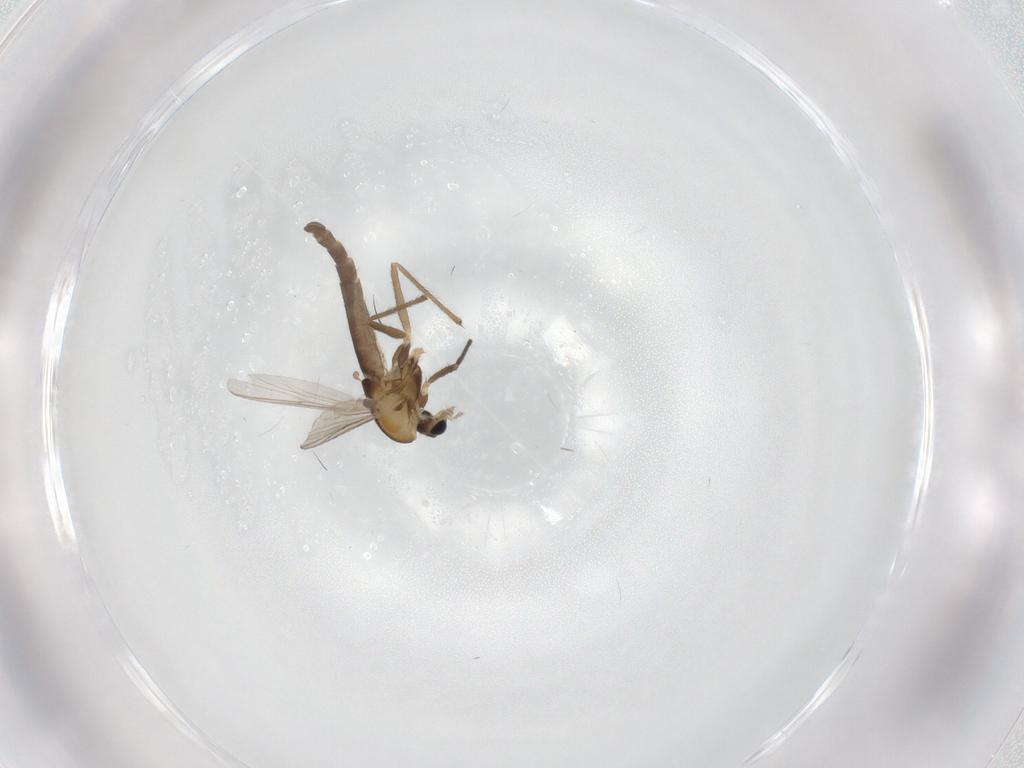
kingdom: Animalia
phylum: Arthropoda
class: Insecta
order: Diptera
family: Chironomidae
